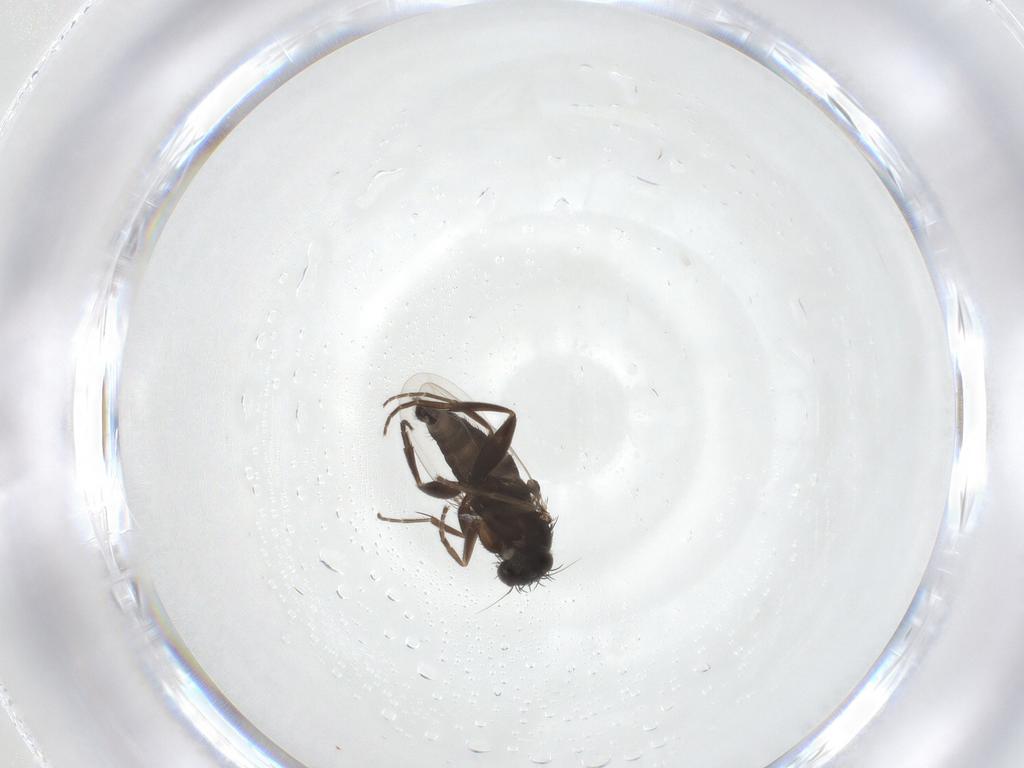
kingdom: Animalia
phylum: Arthropoda
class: Insecta
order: Diptera
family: Phoridae
